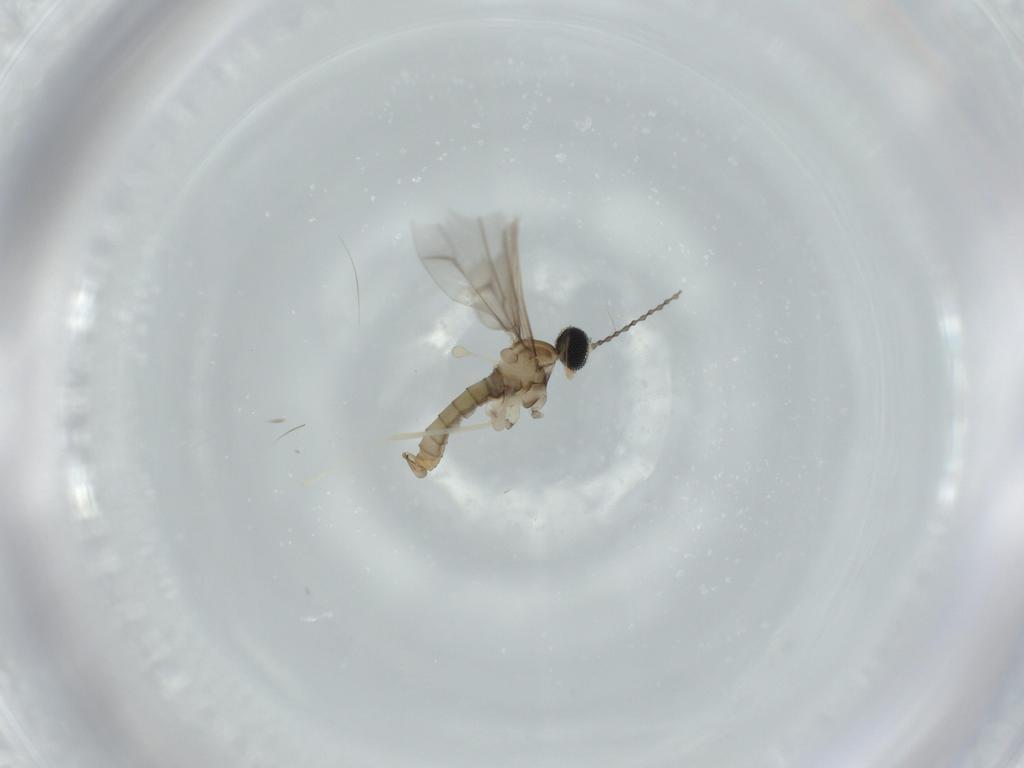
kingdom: Animalia
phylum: Arthropoda
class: Insecta
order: Diptera
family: Cecidomyiidae
